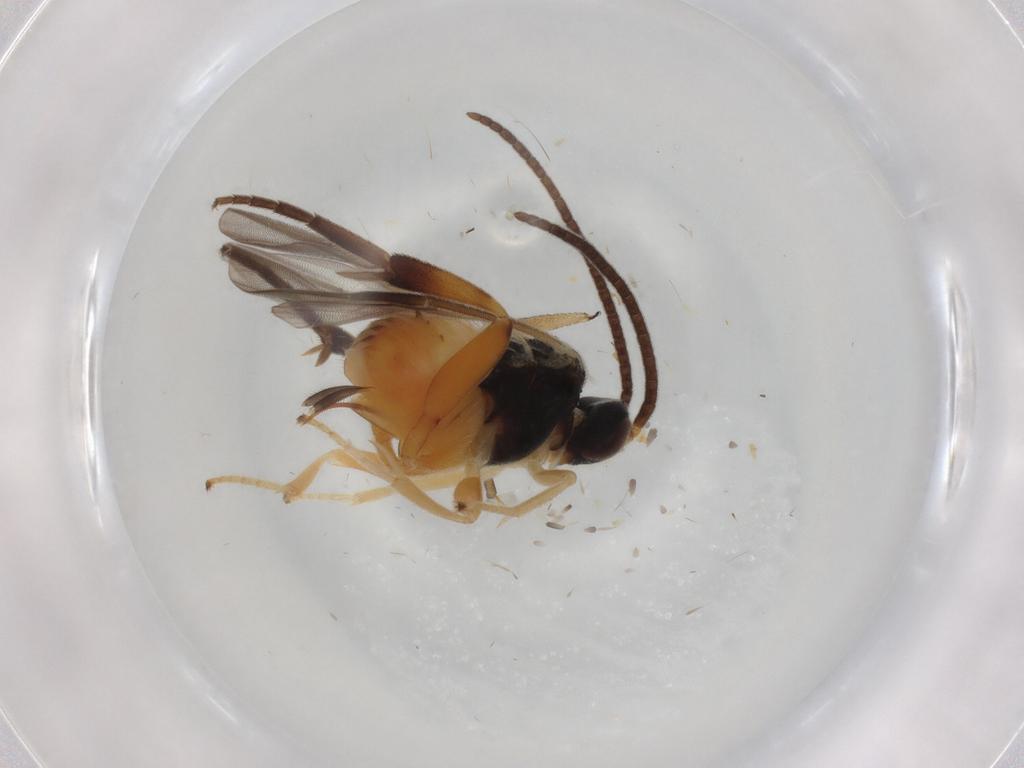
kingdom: Animalia
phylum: Arthropoda
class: Insecta
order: Hymenoptera
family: Braconidae
